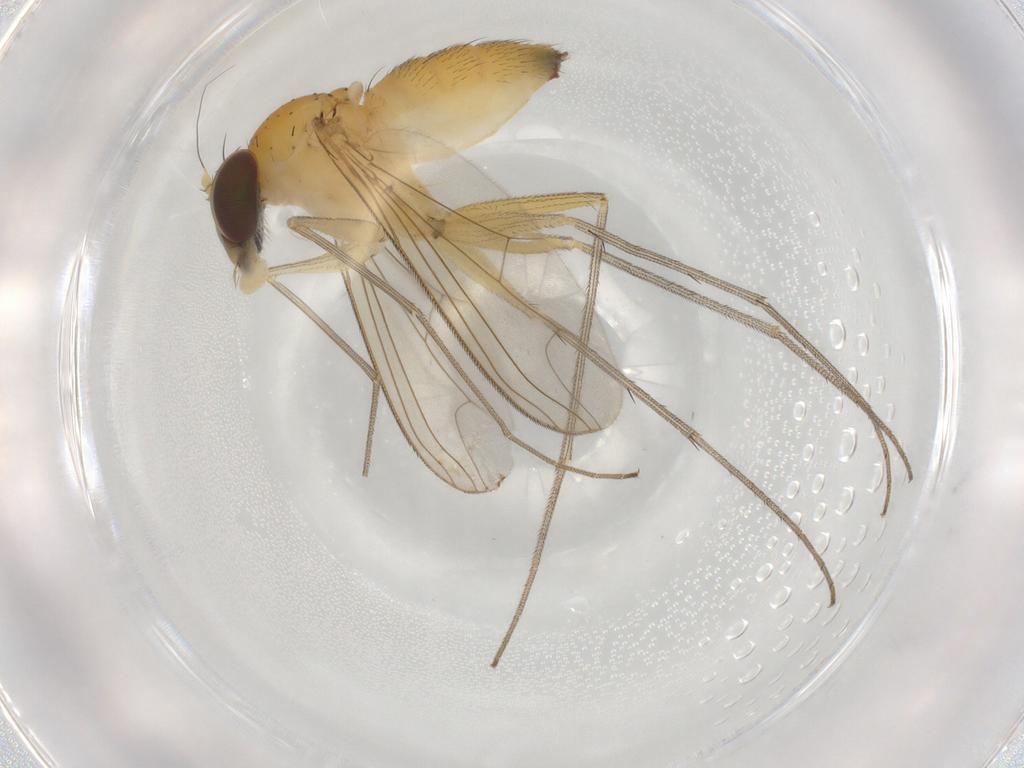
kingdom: Animalia
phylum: Arthropoda
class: Insecta
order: Diptera
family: Dolichopodidae
